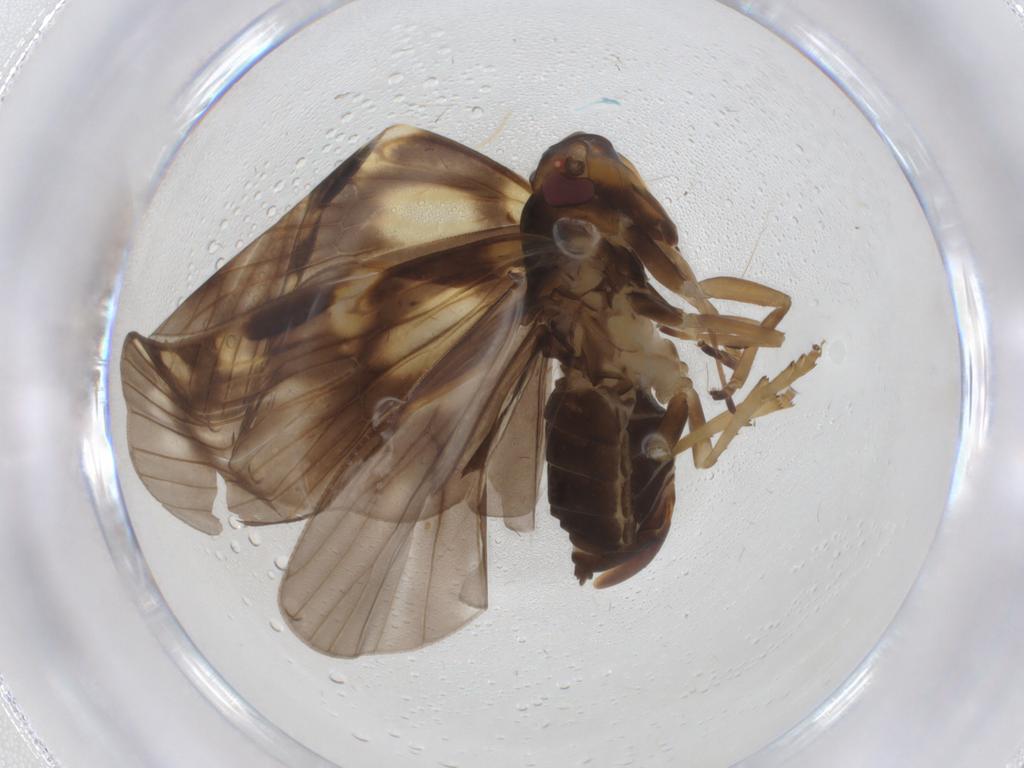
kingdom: Animalia
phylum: Arthropoda
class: Insecta
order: Hemiptera
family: Cixiidae
